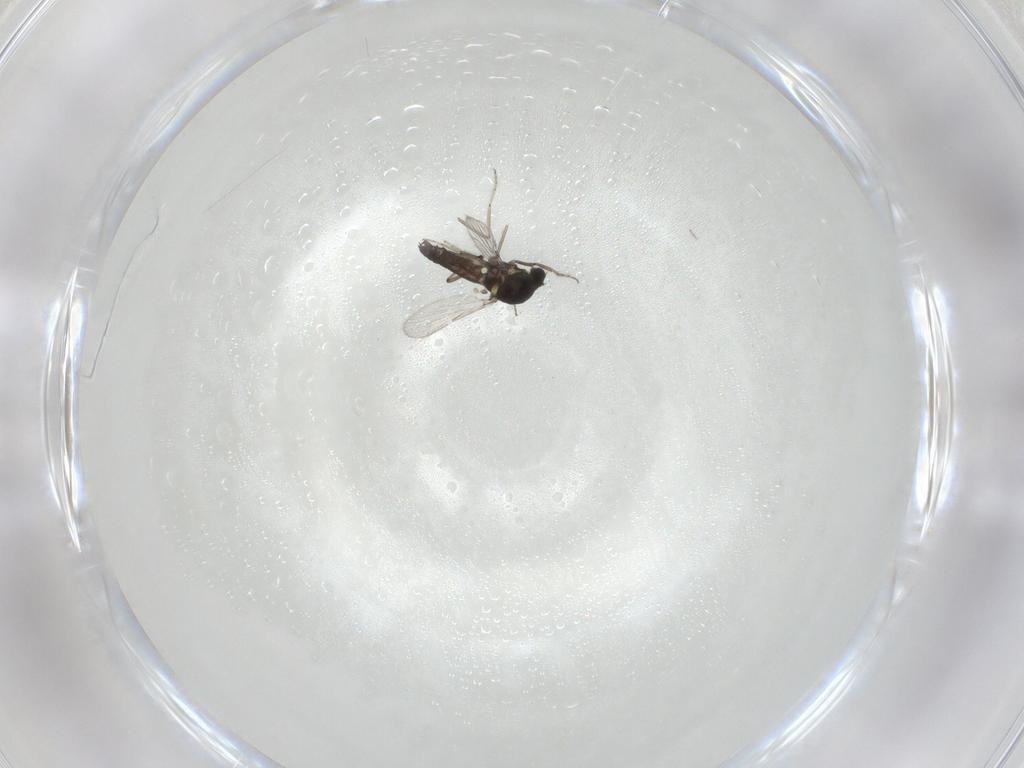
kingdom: Animalia
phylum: Arthropoda
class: Insecta
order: Diptera
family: Ceratopogonidae
